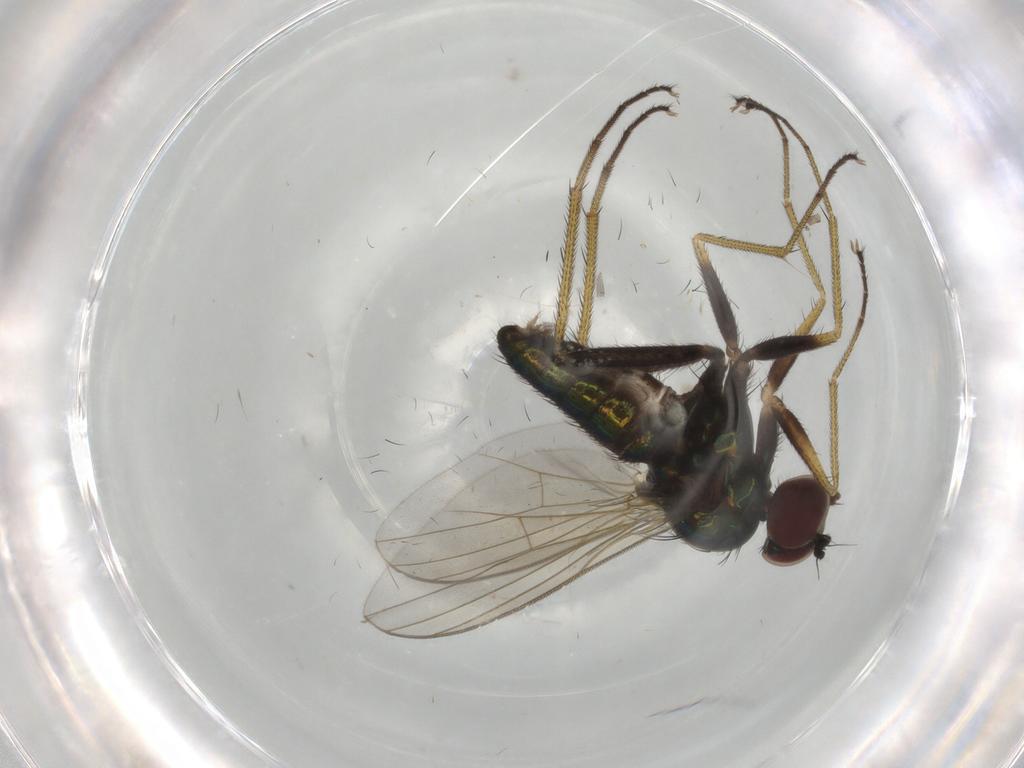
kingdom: Animalia
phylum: Arthropoda
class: Insecta
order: Diptera
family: Dolichopodidae
